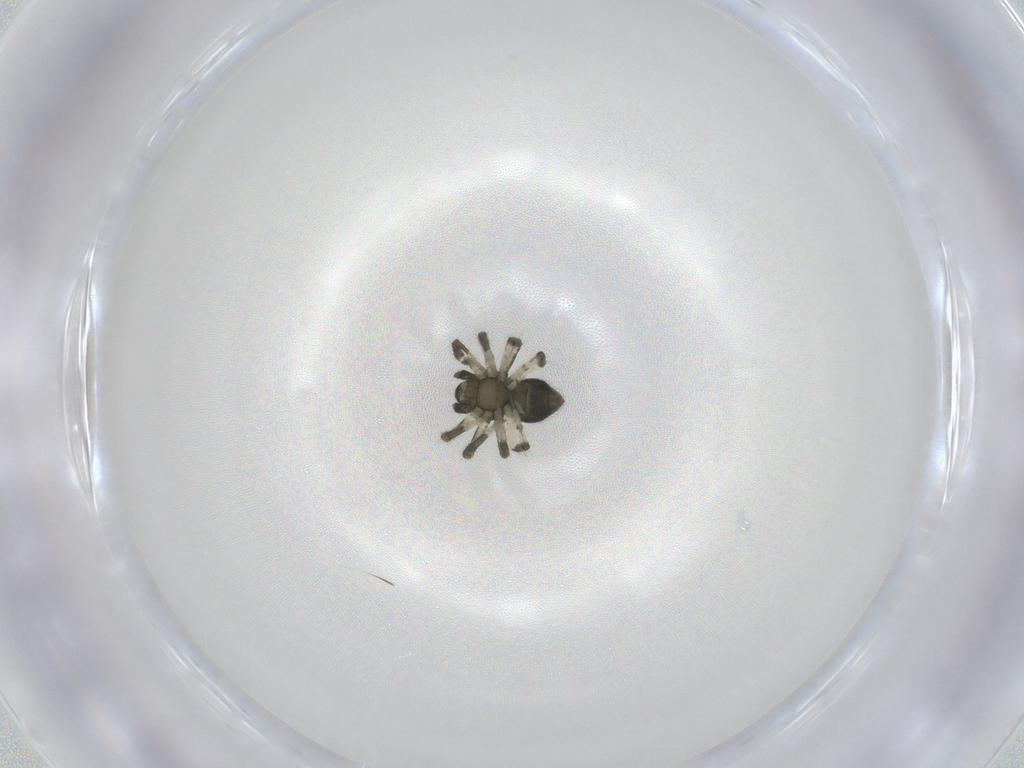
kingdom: Animalia
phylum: Arthropoda
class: Arachnida
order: Araneae
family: Theridiidae
